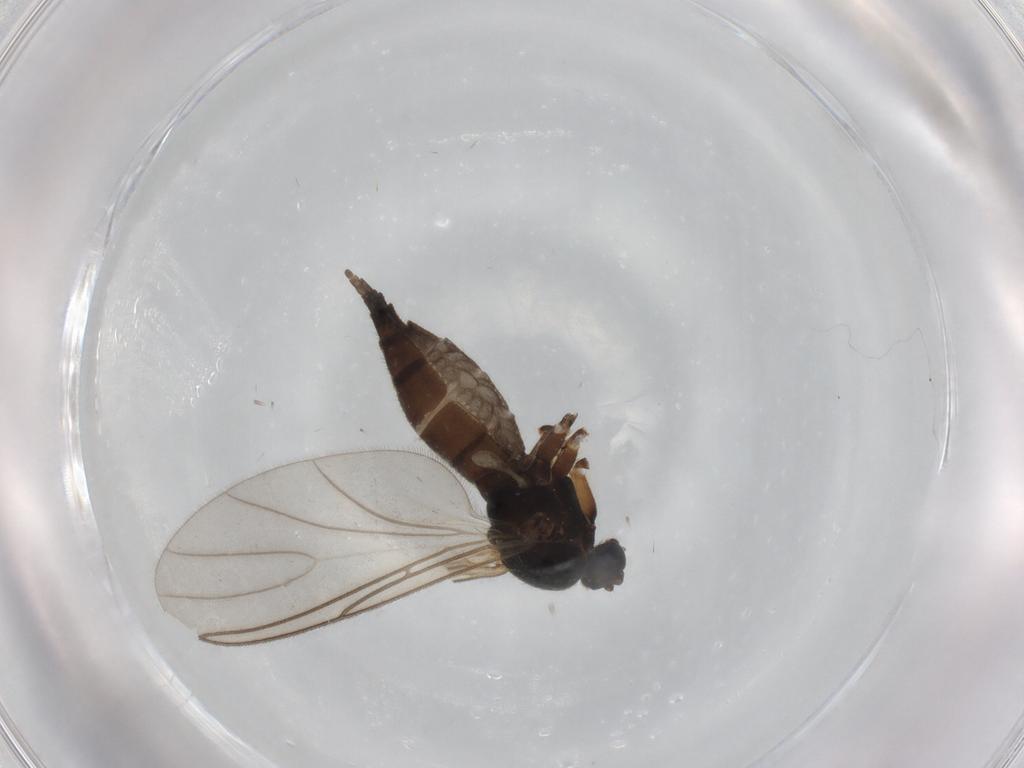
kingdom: Animalia
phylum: Arthropoda
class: Insecta
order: Diptera
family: Sciaridae
